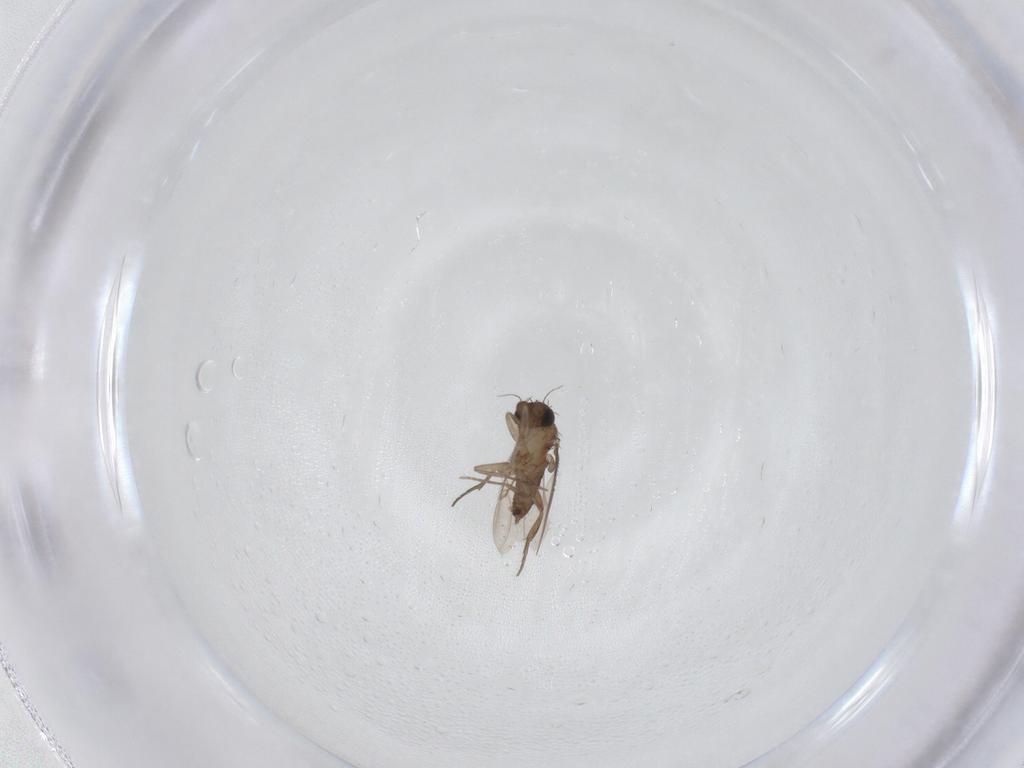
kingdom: Animalia
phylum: Arthropoda
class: Insecta
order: Diptera
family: Phoridae
